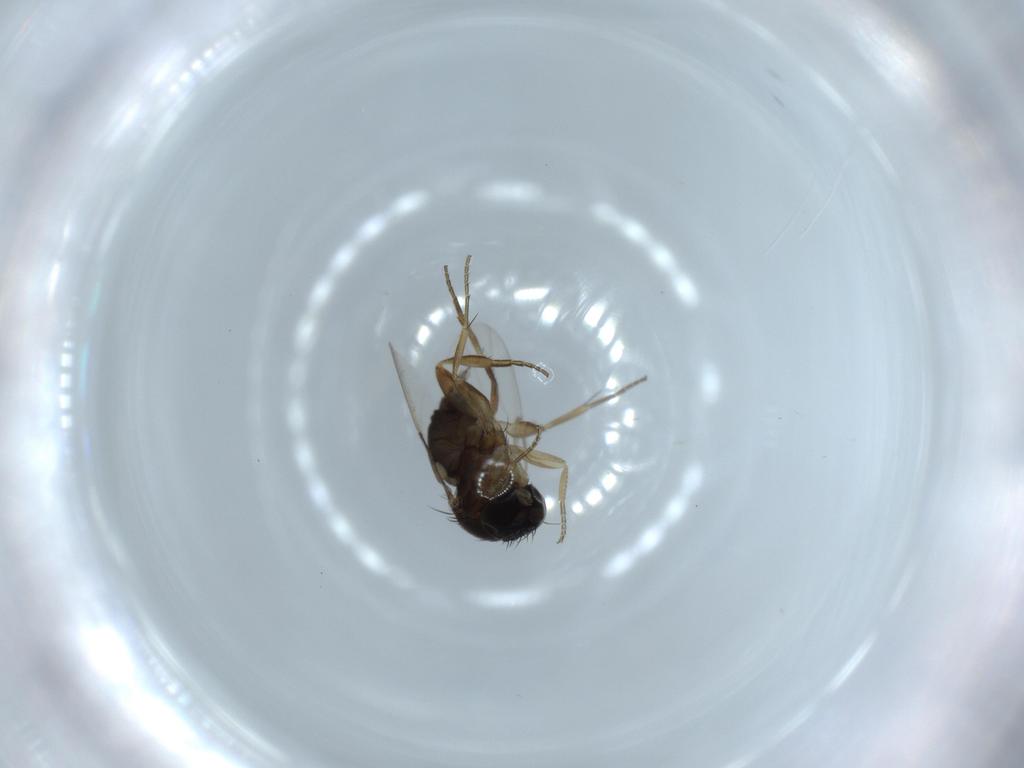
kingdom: Animalia
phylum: Arthropoda
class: Insecta
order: Diptera
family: Phoridae
